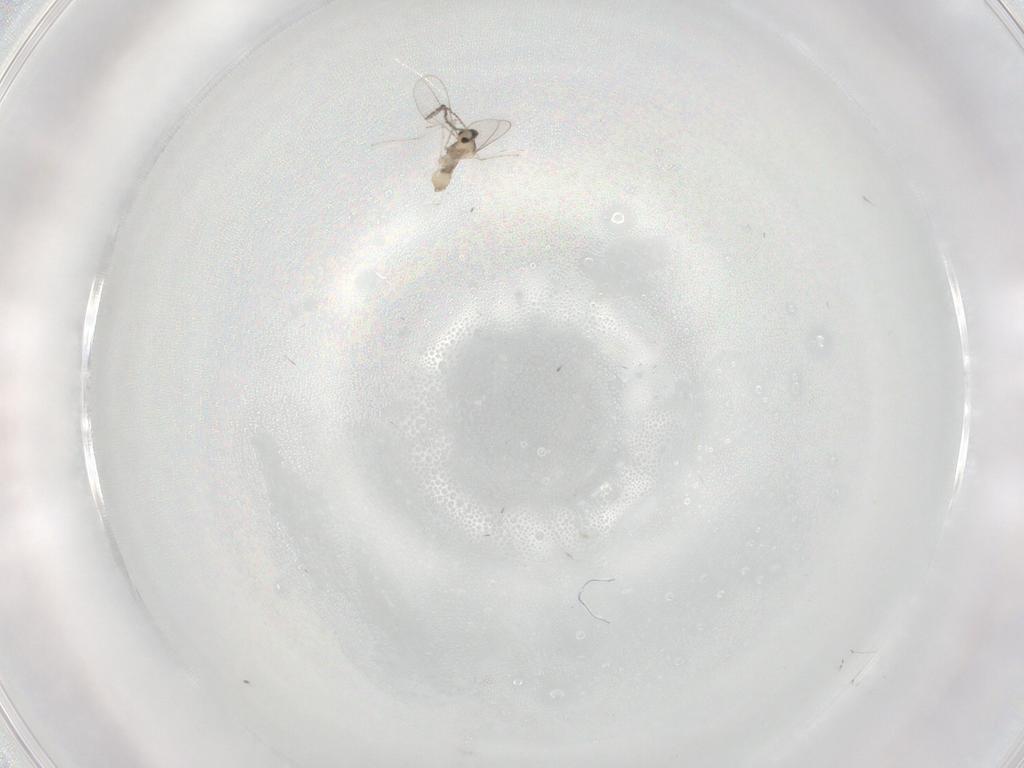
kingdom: Animalia
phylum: Arthropoda
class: Insecta
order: Diptera
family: Cecidomyiidae
